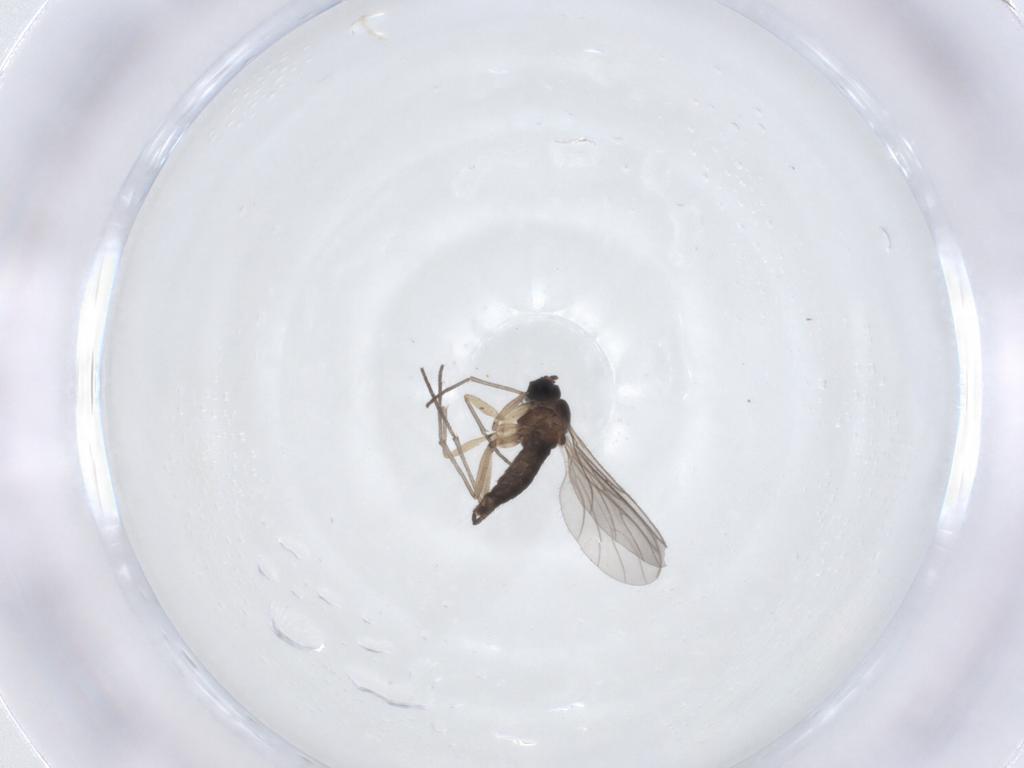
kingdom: Animalia
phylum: Arthropoda
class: Insecta
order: Diptera
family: Sciaridae
